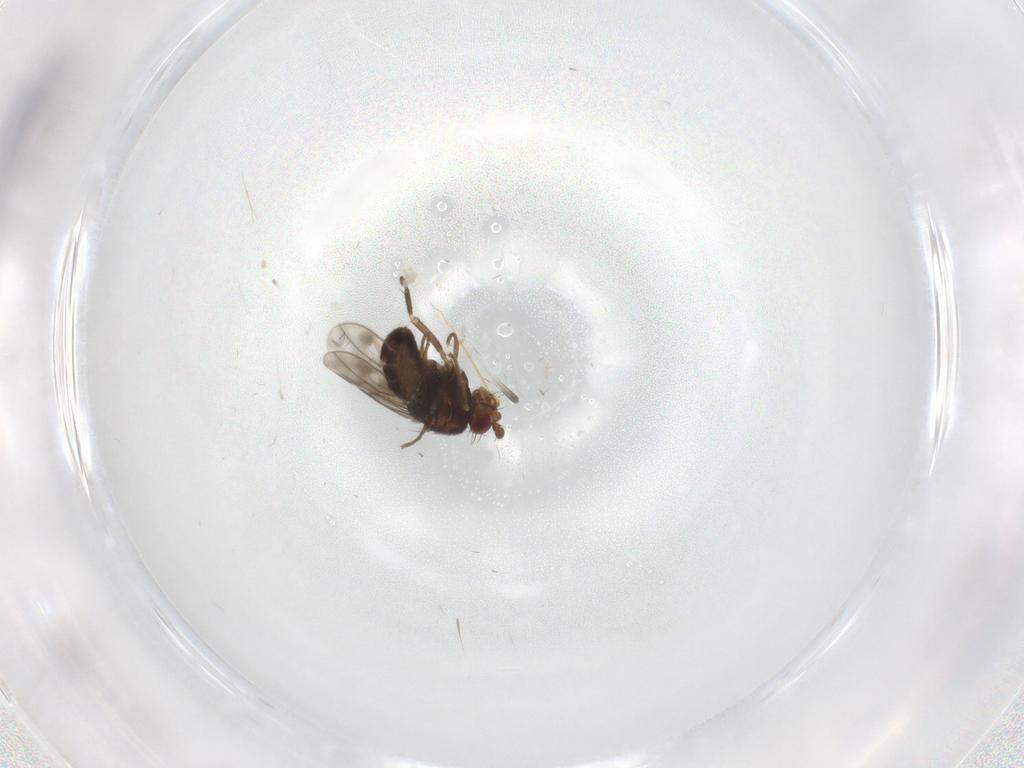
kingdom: Animalia
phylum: Arthropoda
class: Insecta
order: Diptera
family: Sphaeroceridae
